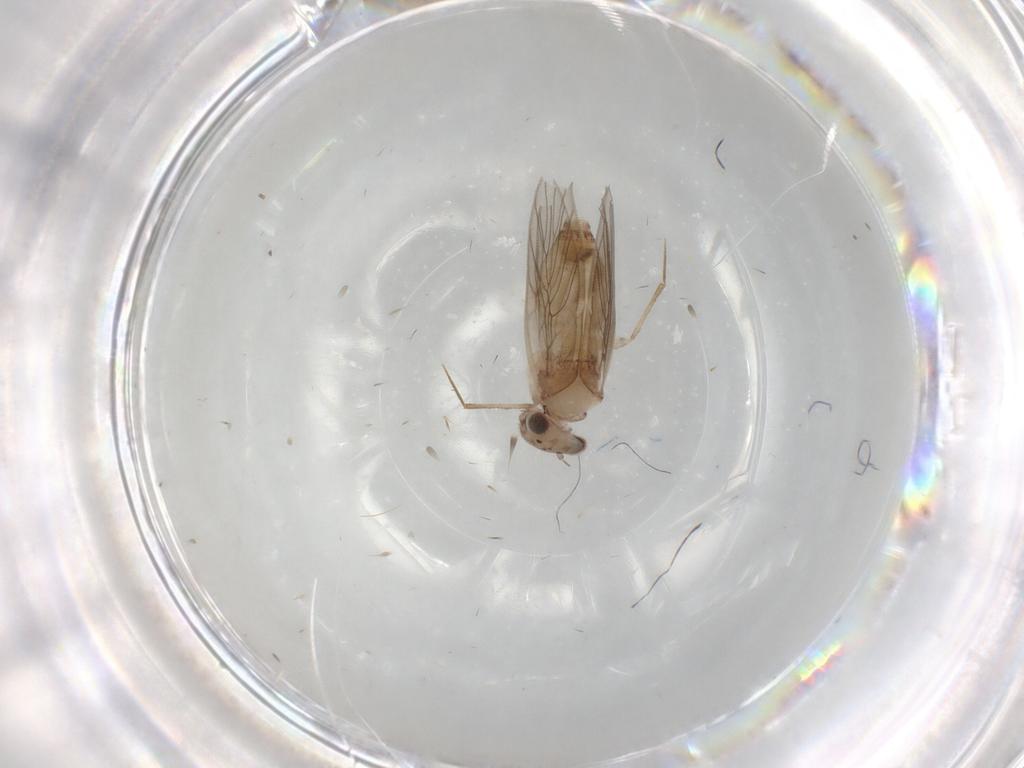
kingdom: Animalia
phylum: Arthropoda
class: Insecta
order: Psocodea
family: Lepidopsocidae
